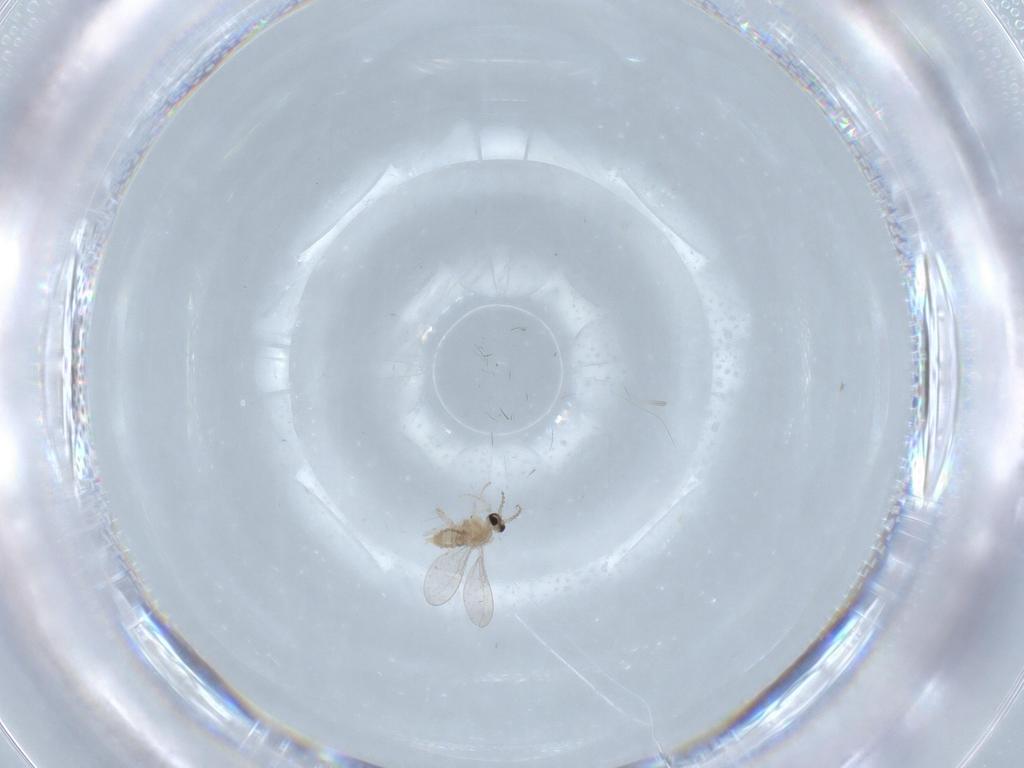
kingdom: Animalia
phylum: Arthropoda
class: Insecta
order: Diptera
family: Cecidomyiidae
